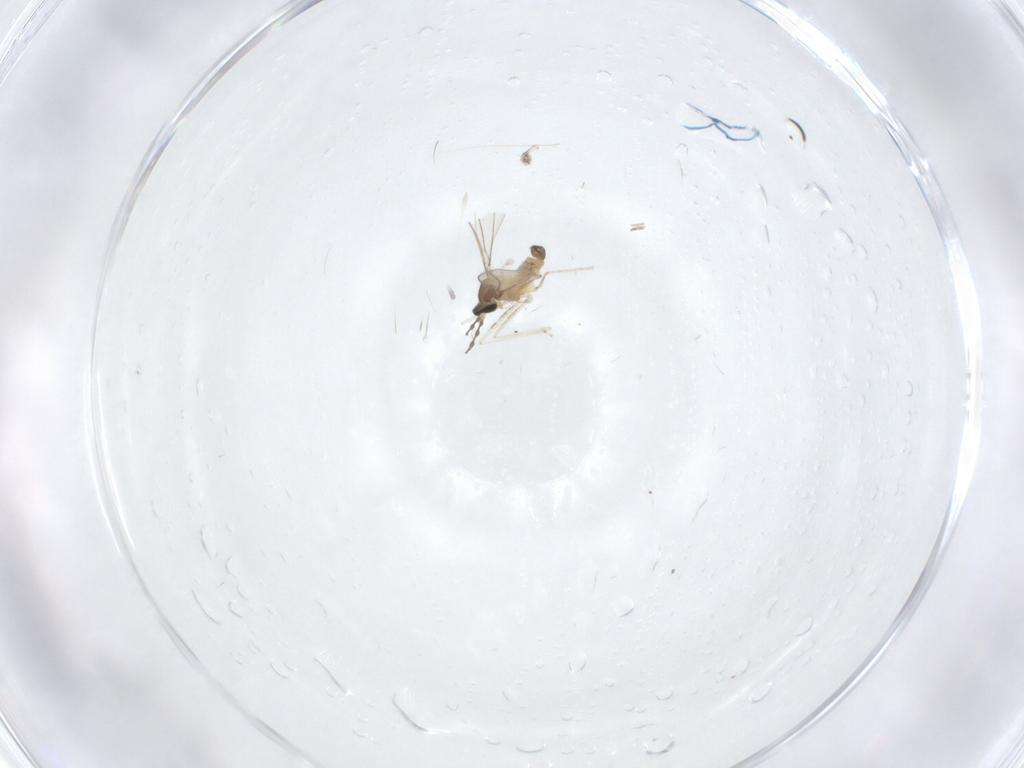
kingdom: Animalia
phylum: Arthropoda
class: Insecta
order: Diptera
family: Cecidomyiidae
